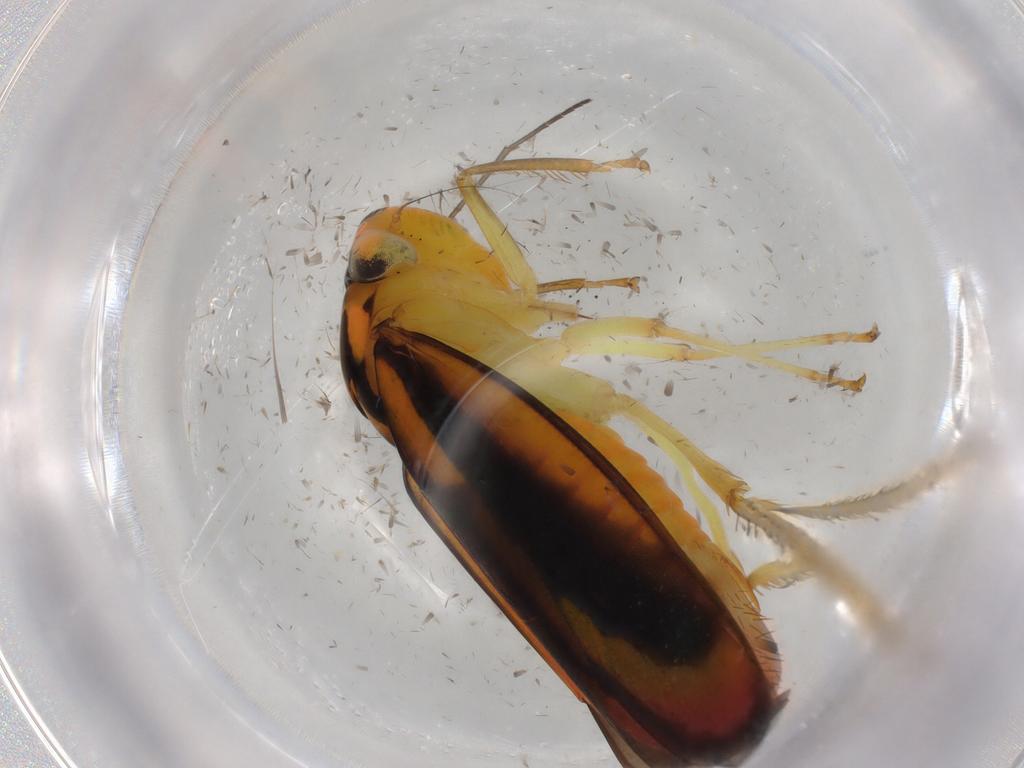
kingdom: Animalia
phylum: Arthropoda
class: Insecta
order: Hemiptera
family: Cicadellidae
